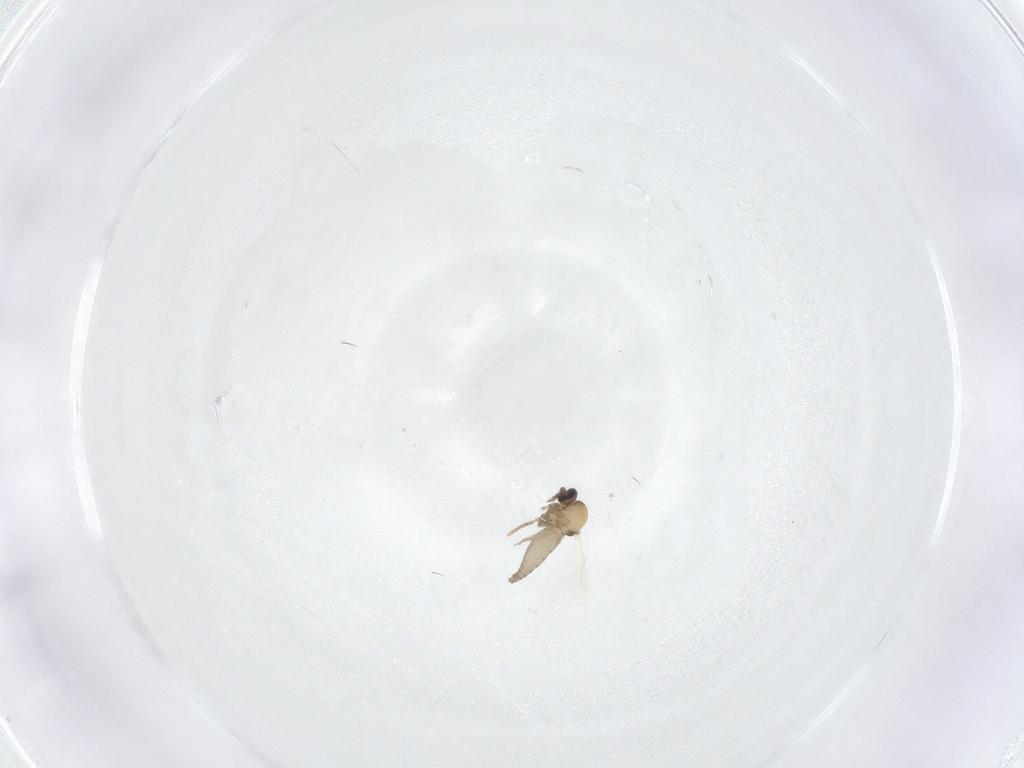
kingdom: Animalia
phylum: Arthropoda
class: Insecta
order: Diptera
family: Ceratopogonidae
